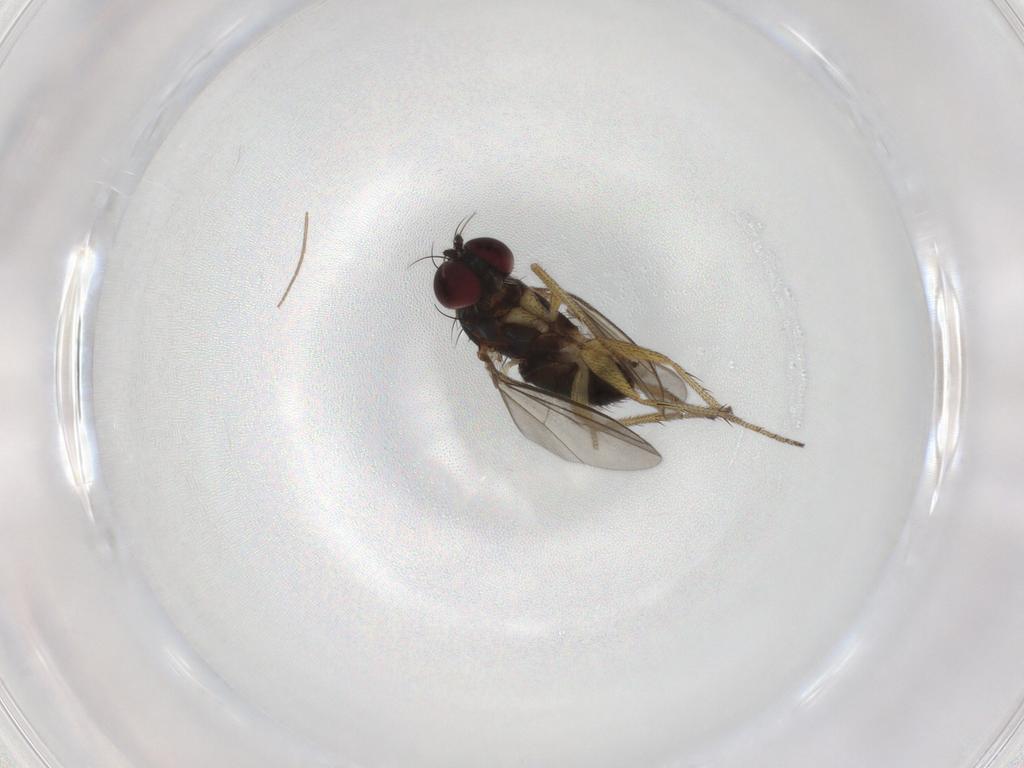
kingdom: Animalia
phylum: Arthropoda
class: Insecta
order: Diptera
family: Dolichopodidae
